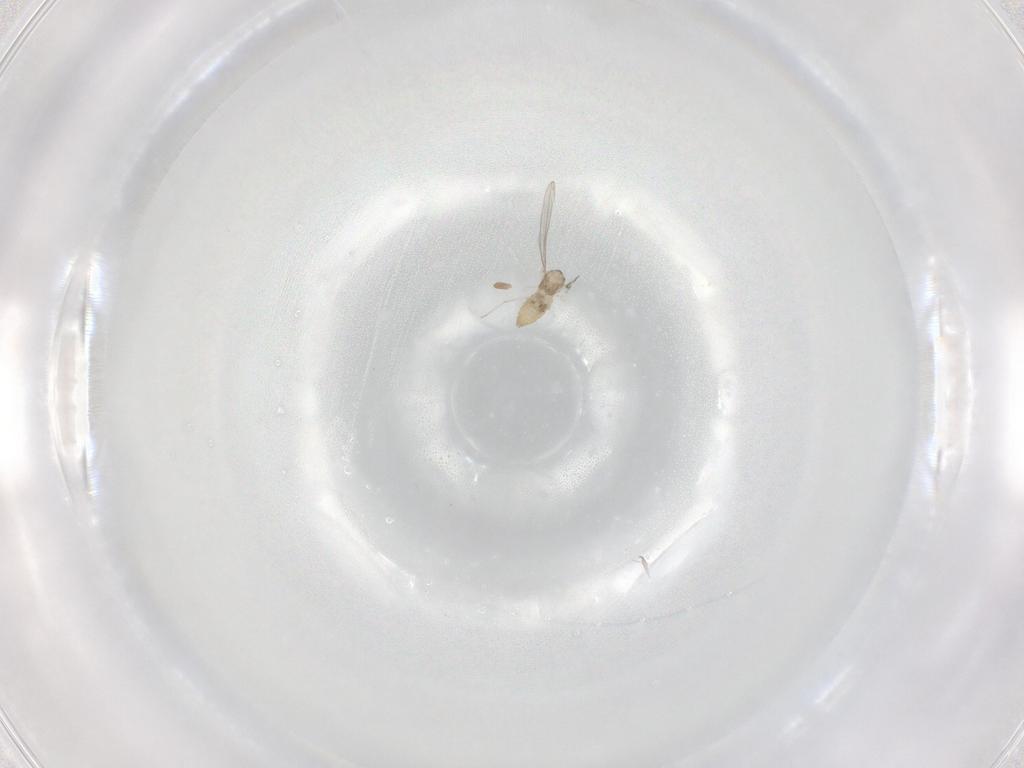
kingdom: Animalia
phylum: Arthropoda
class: Insecta
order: Diptera
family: Cecidomyiidae
